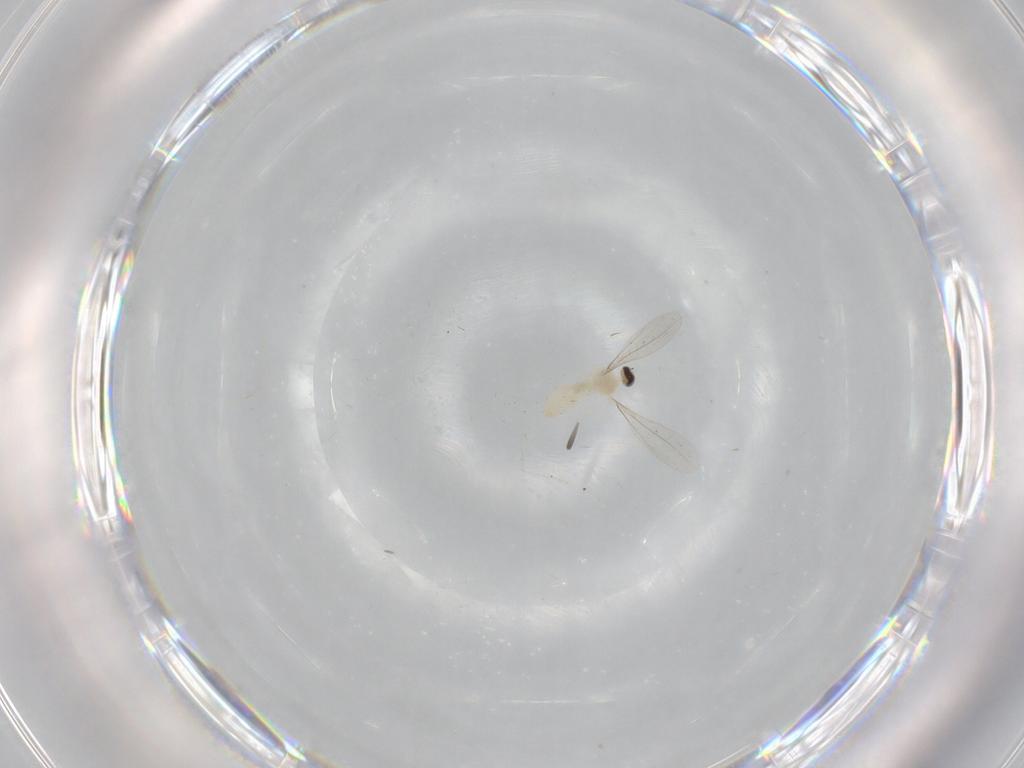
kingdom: Animalia
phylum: Arthropoda
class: Insecta
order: Diptera
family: Cecidomyiidae
